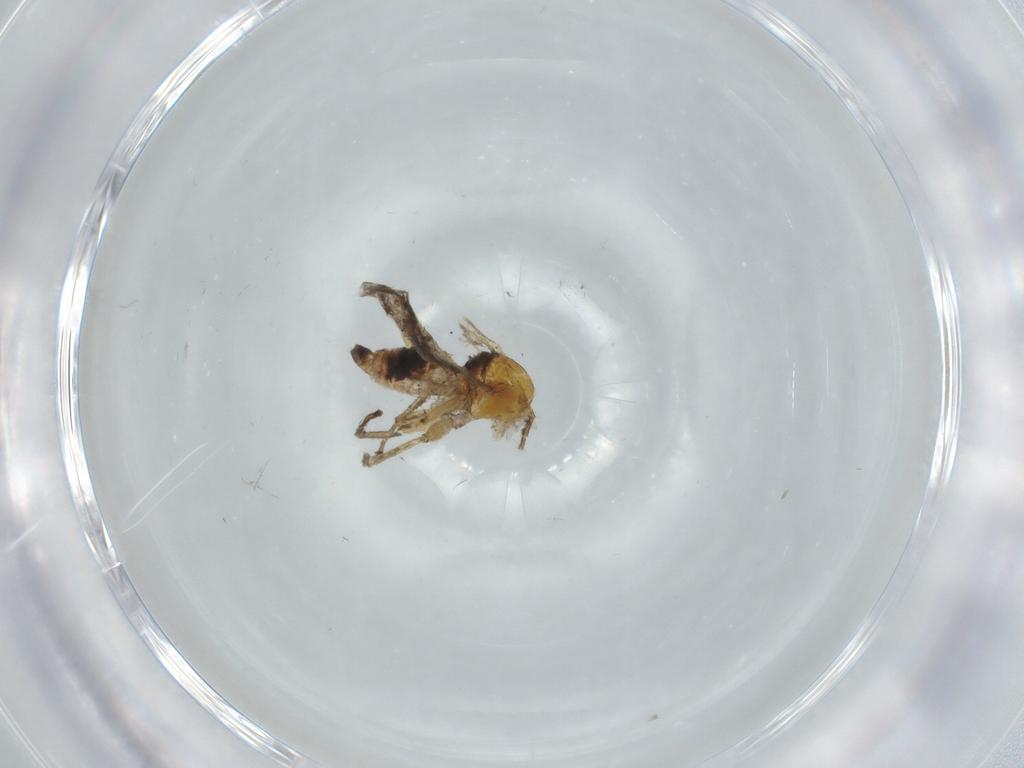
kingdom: Animalia
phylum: Arthropoda
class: Insecta
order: Diptera
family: Hybotidae
